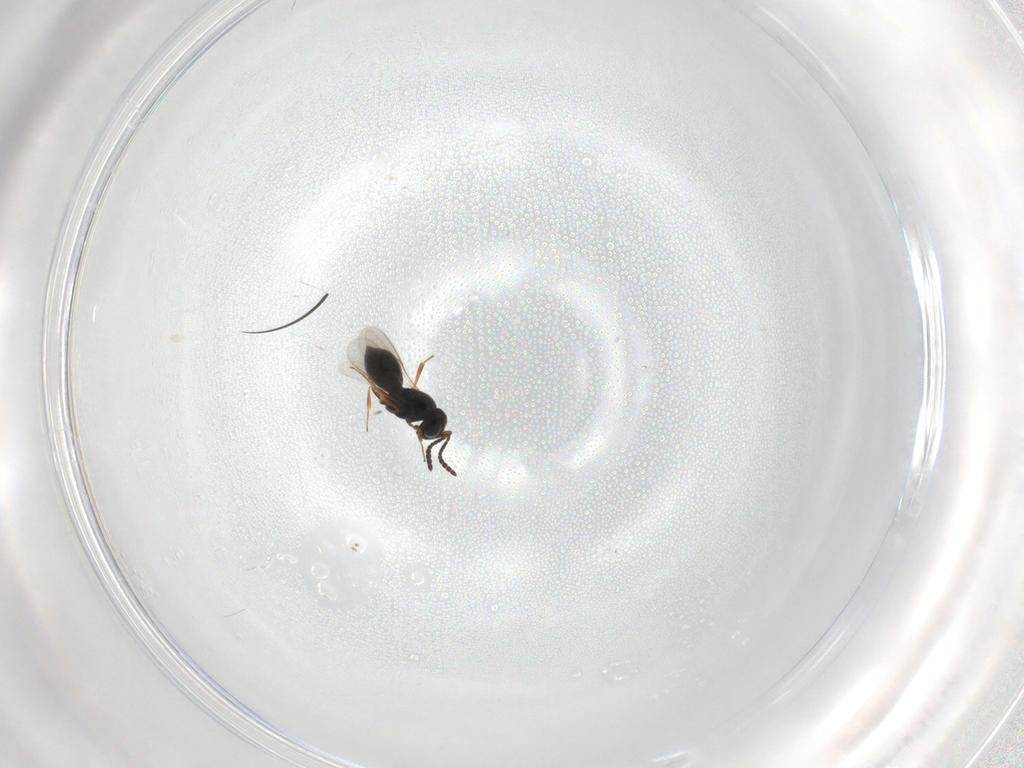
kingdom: Animalia
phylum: Arthropoda
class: Insecta
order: Hymenoptera
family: Scelionidae
